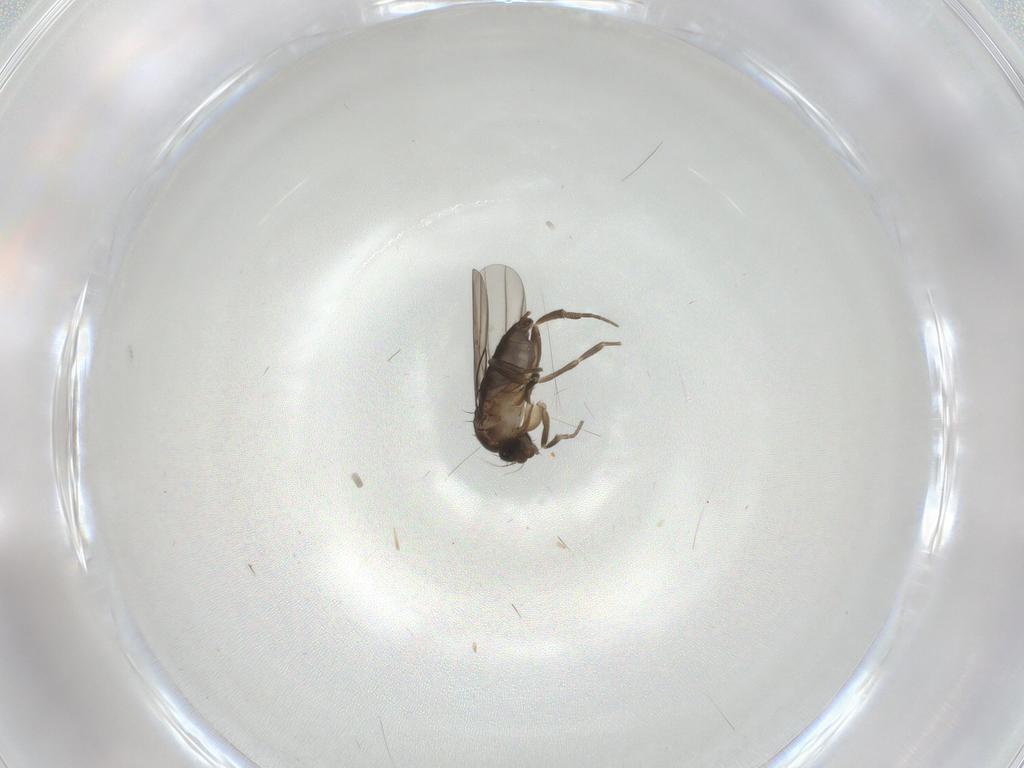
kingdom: Animalia
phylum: Arthropoda
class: Insecta
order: Diptera
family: Phoridae
